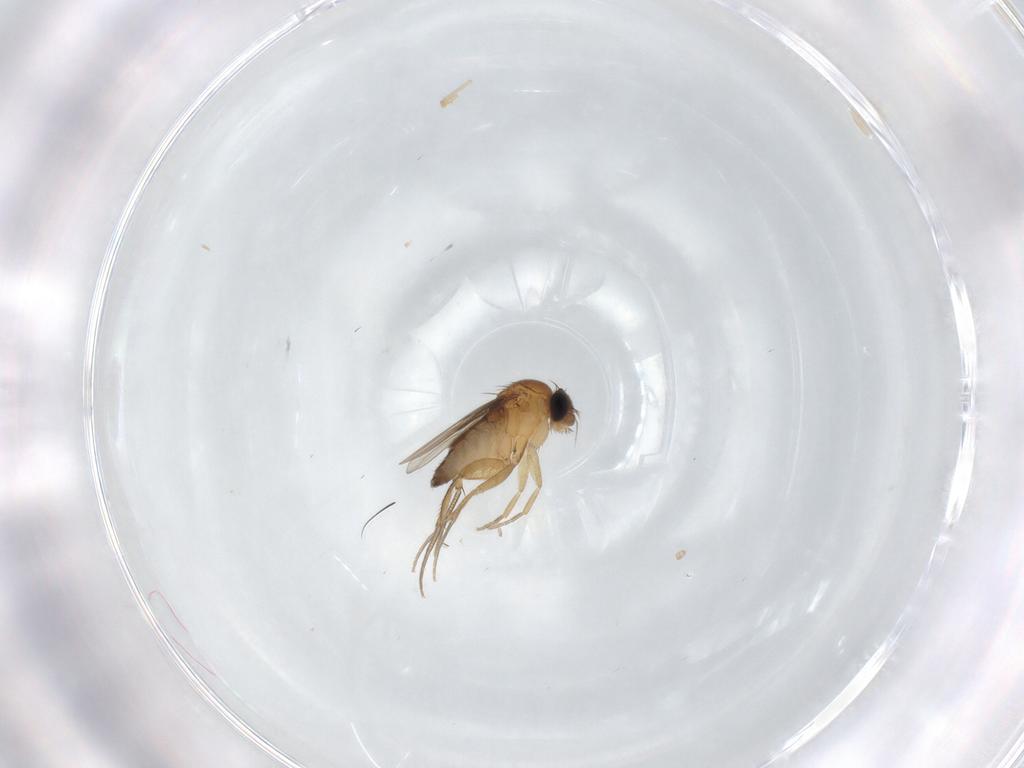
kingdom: Animalia
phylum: Arthropoda
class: Insecta
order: Diptera
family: Phoridae
